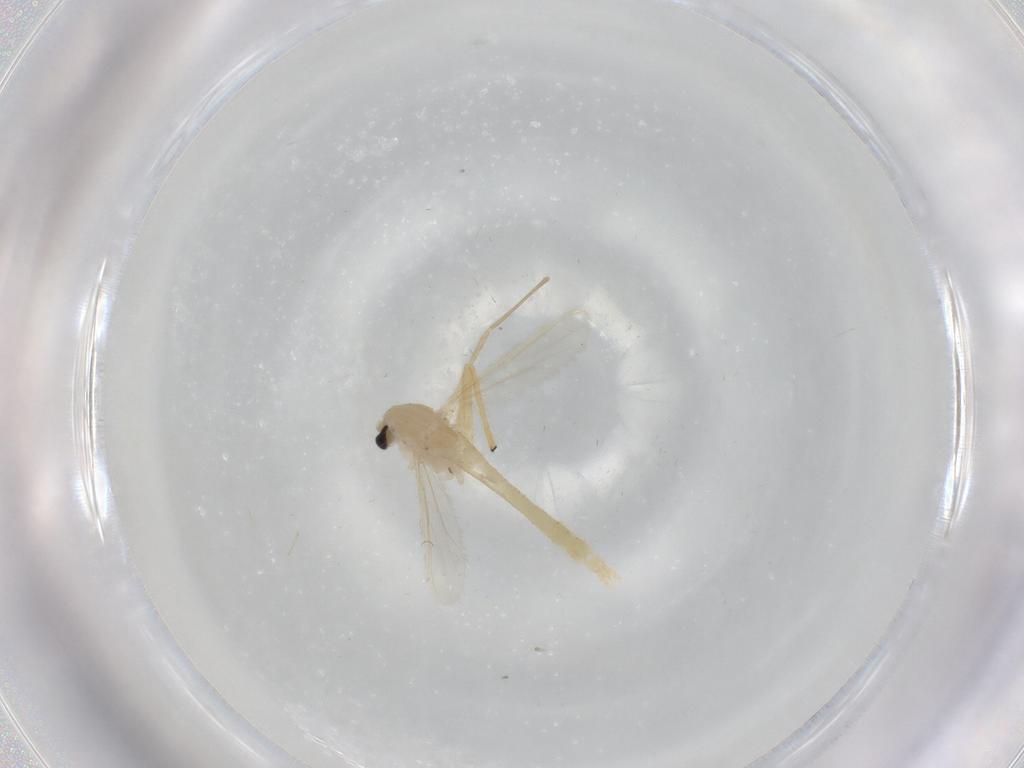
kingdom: Animalia
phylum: Arthropoda
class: Insecta
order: Diptera
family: Chironomidae
